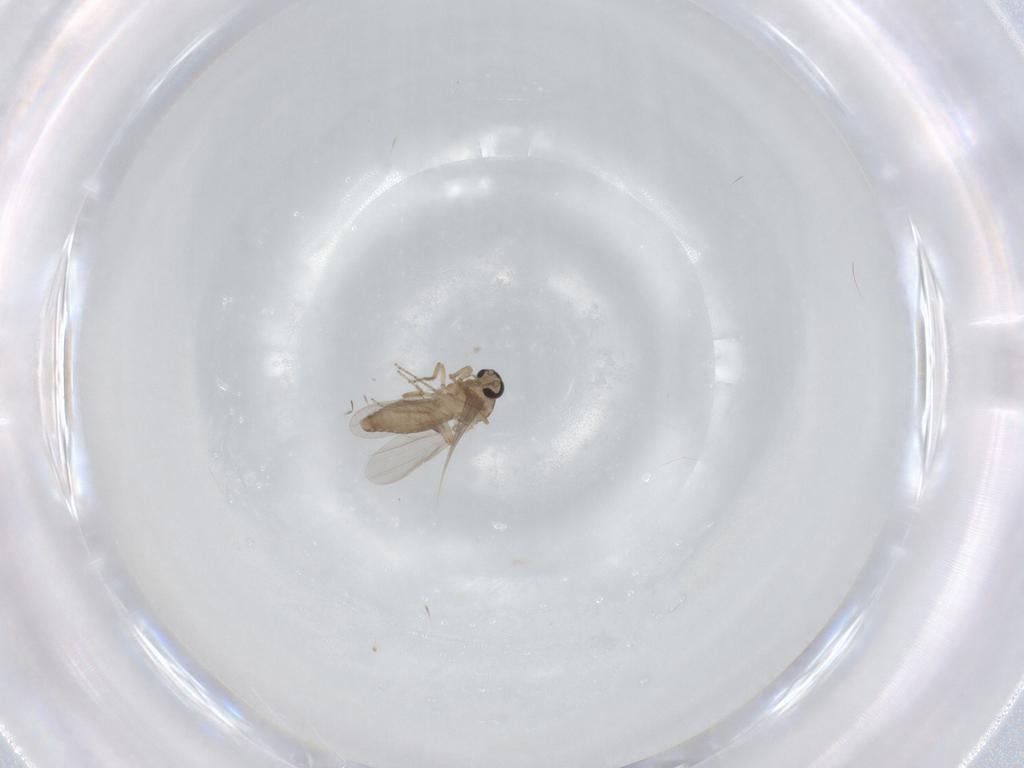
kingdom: Animalia
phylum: Arthropoda
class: Insecta
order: Diptera
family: Ceratopogonidae
